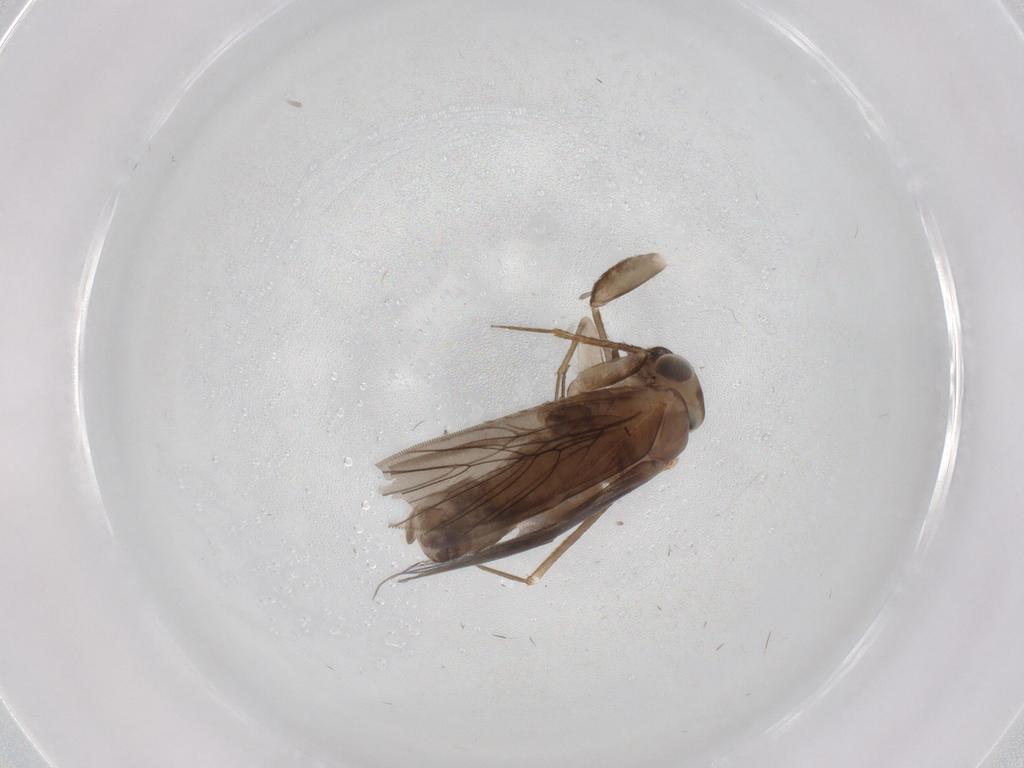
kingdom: Animalia
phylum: Arthropoda
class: Insecta
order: Psocodea
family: Lepidopsocidae
